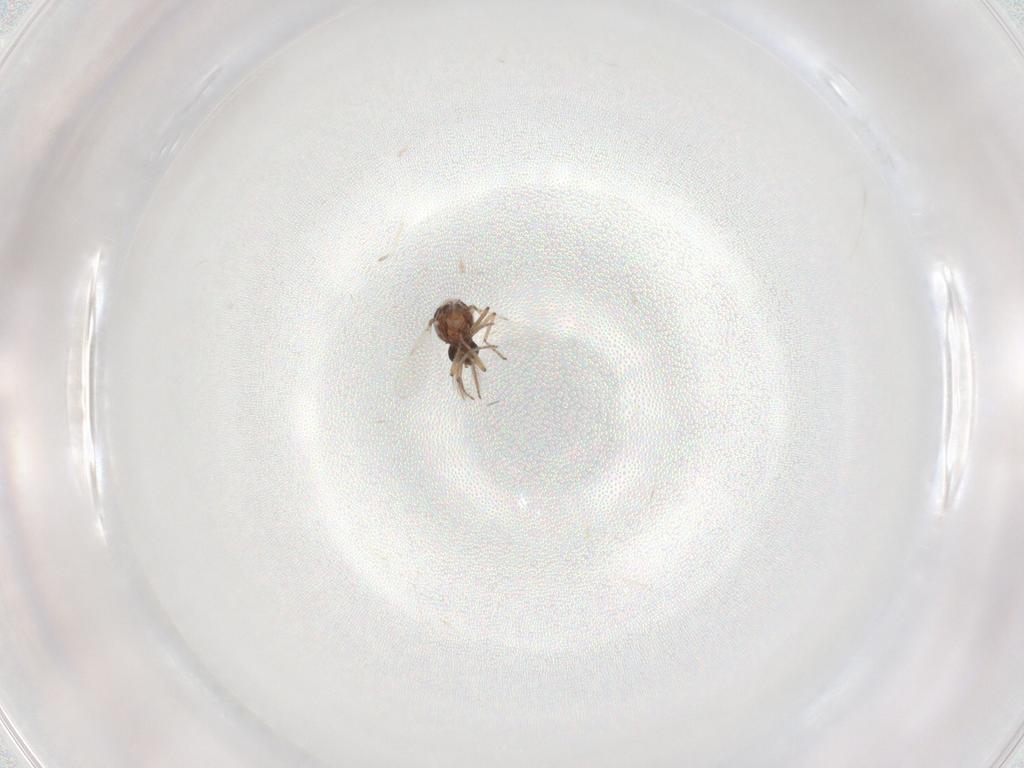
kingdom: Animalia
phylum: Arthropoda
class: Insecta
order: Diptera
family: Ceratopogonidae
